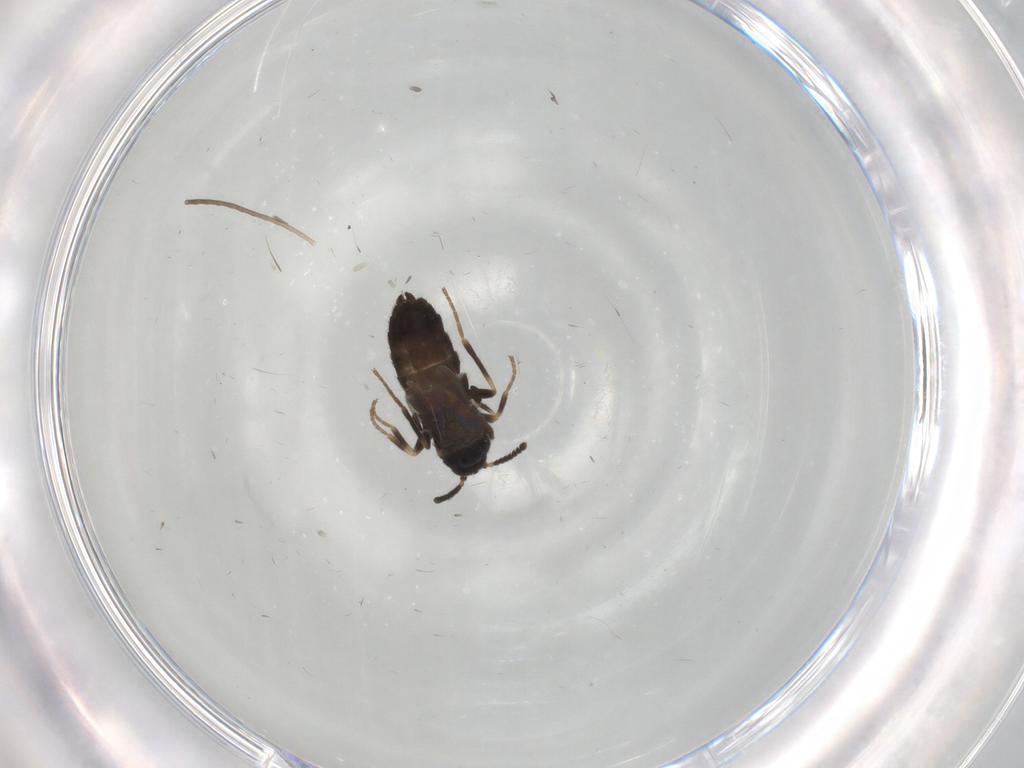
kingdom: Animalia
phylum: Arthropoda
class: Insecta
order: Diptera
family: Scatopsidae
